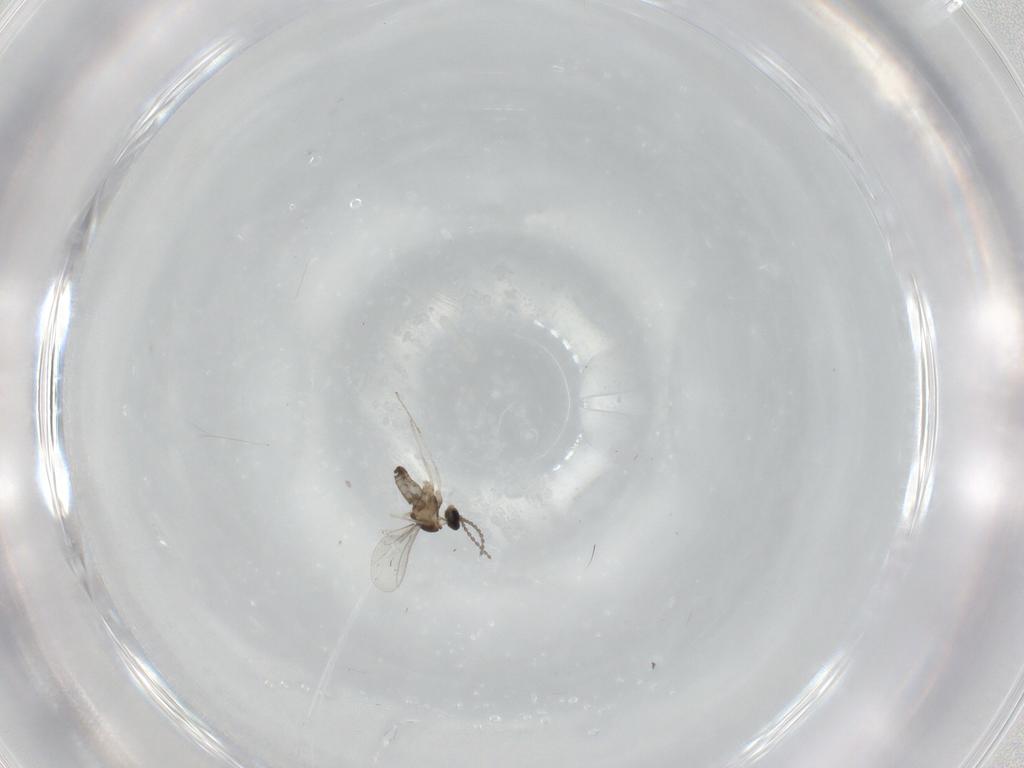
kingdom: Animalia
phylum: Arthropoda
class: Insecta
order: Diptera
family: Cecidomyiidae
